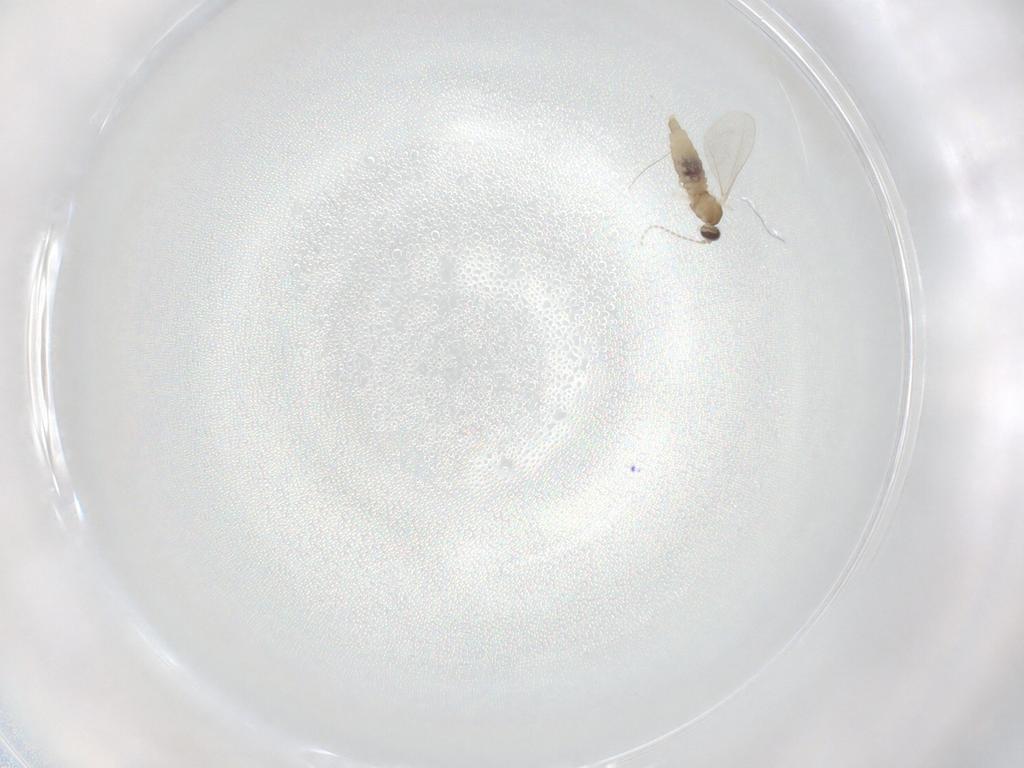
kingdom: Animalia
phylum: Arthropoda
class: Insecta
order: Diptera
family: Cecidomyiidae
